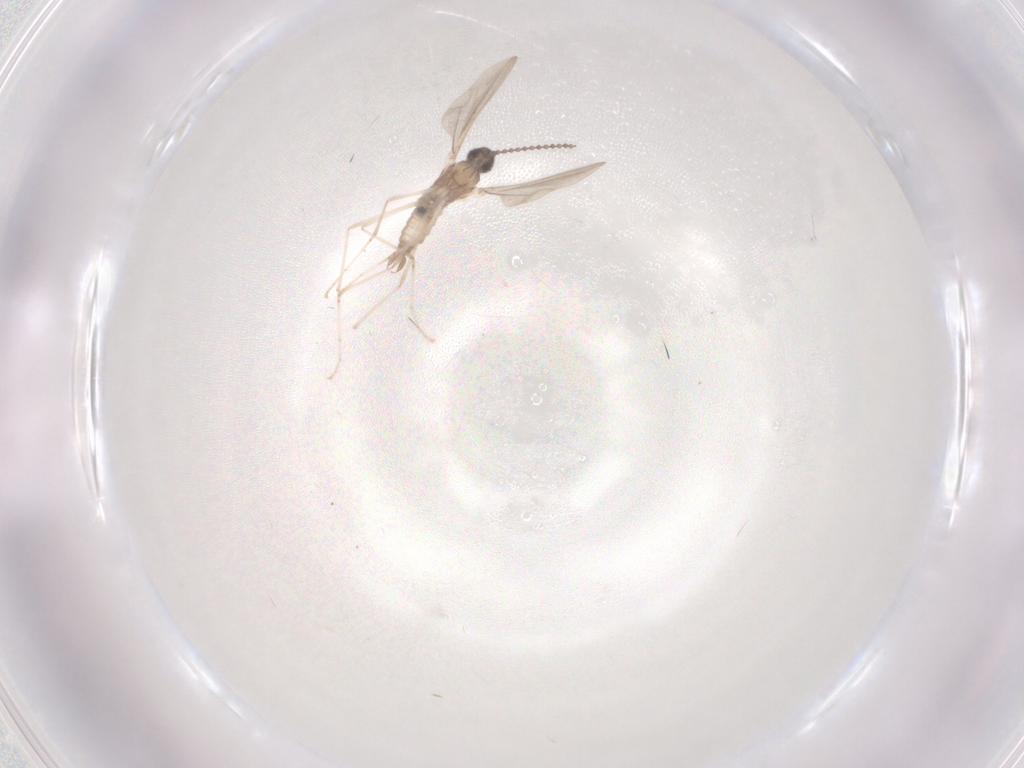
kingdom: Animalia
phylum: Arthropoda
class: Insecta
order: Diptera
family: Cecidomyiidae
